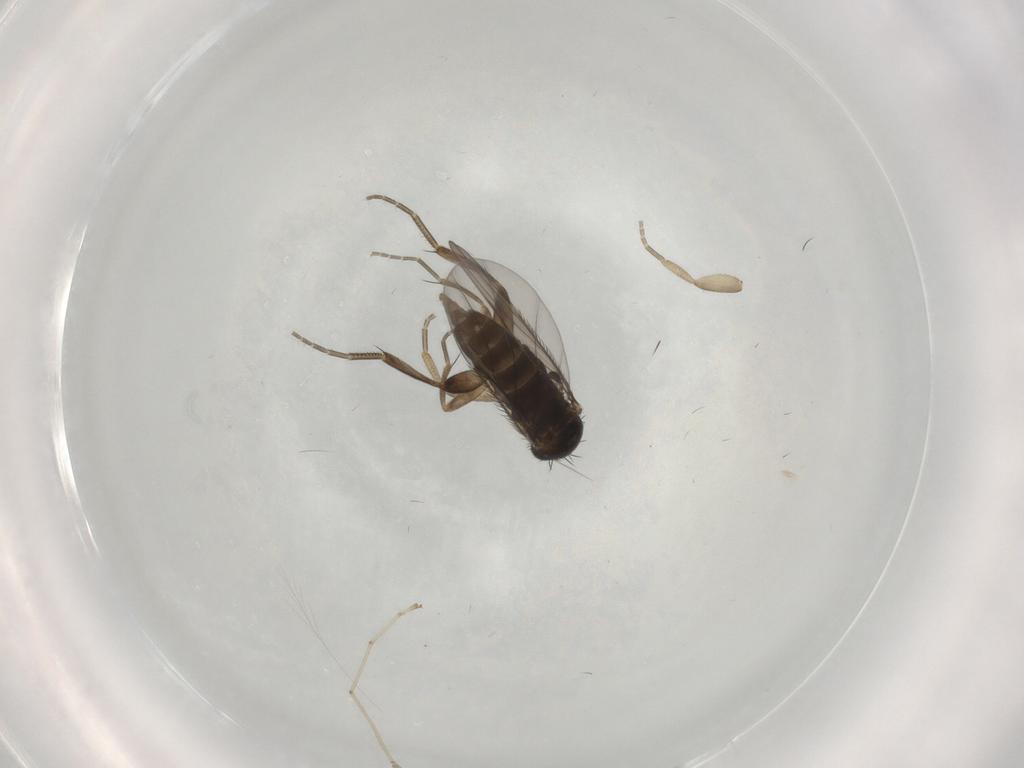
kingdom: Animalia
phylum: Arthropoda
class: Insecta
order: Diptera
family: Phoridae
